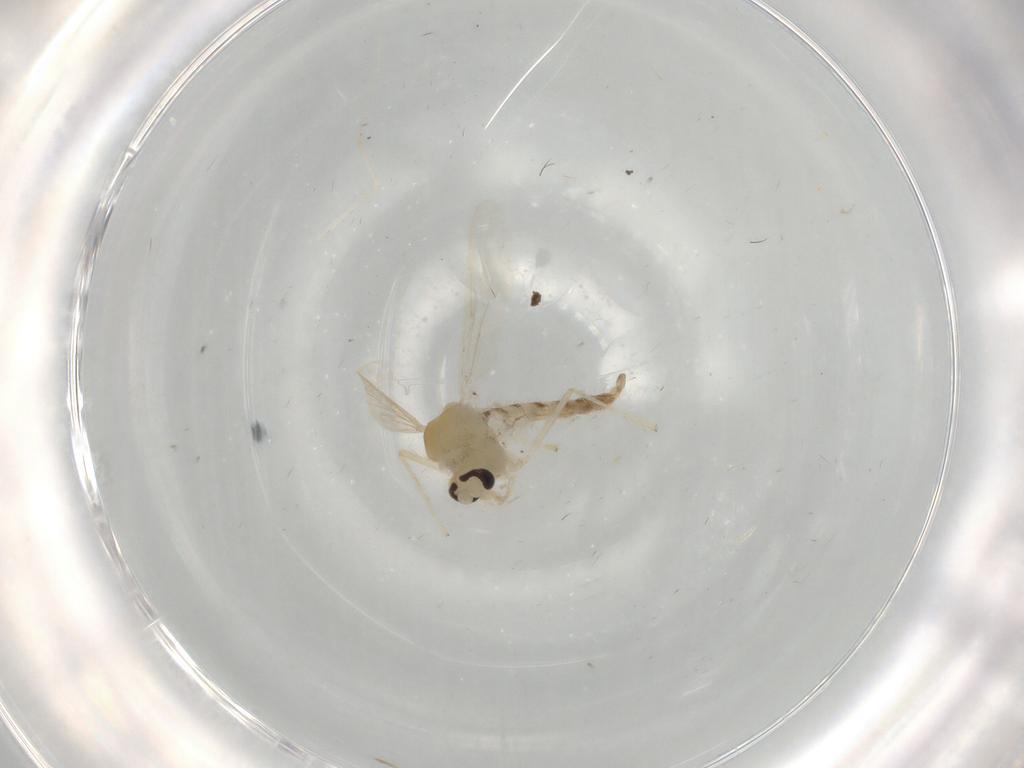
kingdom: Animalia
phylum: Arthropoda
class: Insecta
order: Diptera
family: Chironomidae
